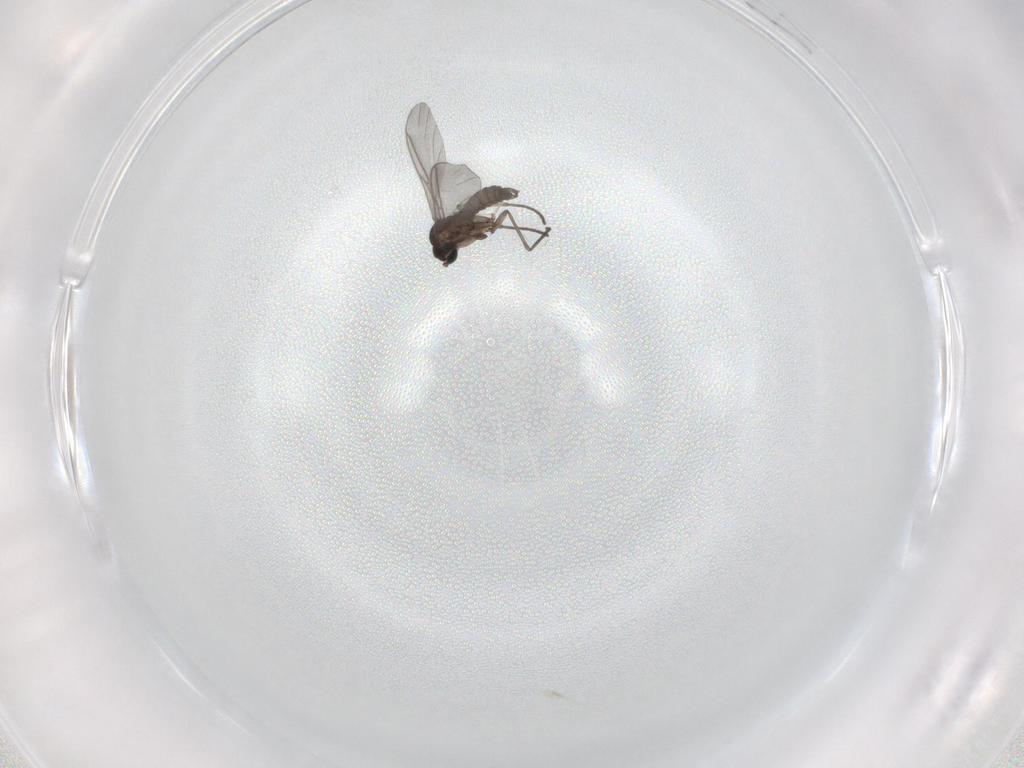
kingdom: Animalia
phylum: Arthropoda
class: Insecta
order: Diptera
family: Sciaridae
